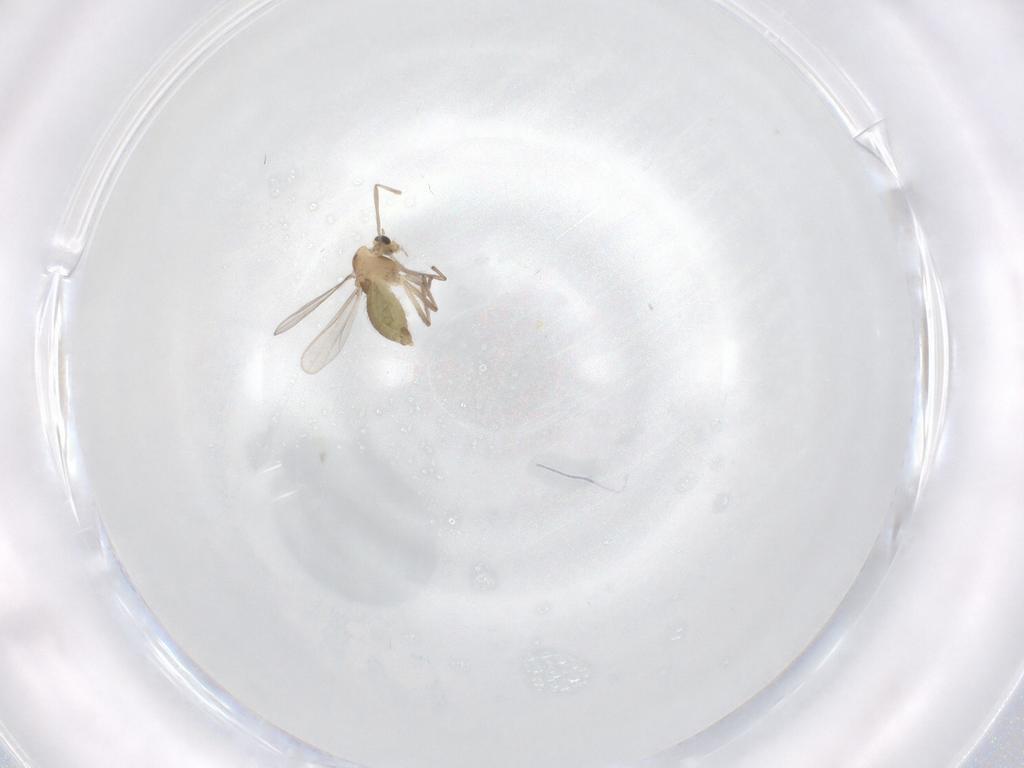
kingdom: Animalia
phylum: Arthropoda
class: Insecta
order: Diptera
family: Chironomidae
